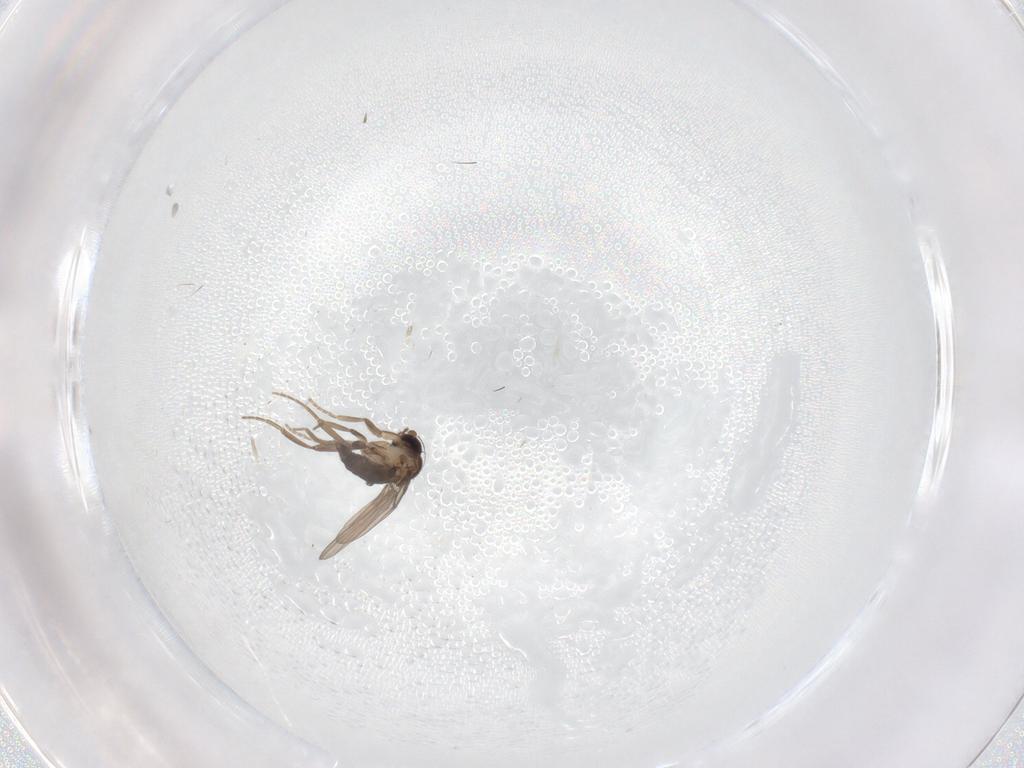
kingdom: Animalia
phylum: Arthropoda
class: Insecta
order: Diptera
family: Phoridae
